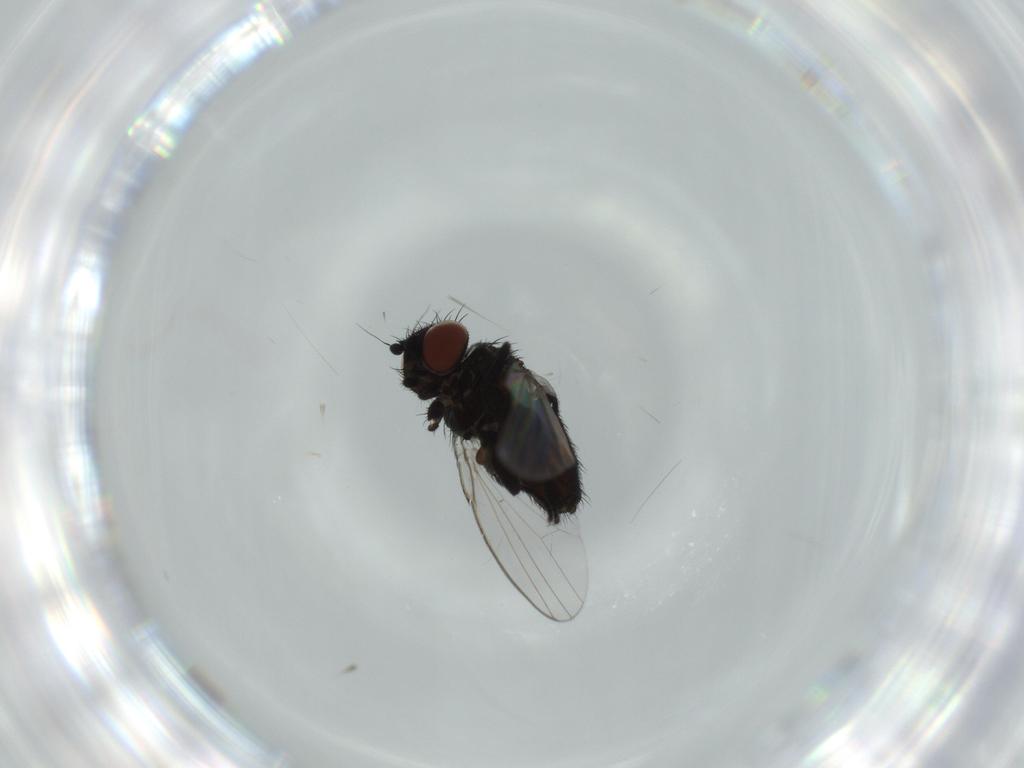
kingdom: Animalia
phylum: Arthropoda
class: Insecta
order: Diptera
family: Milichiidae
